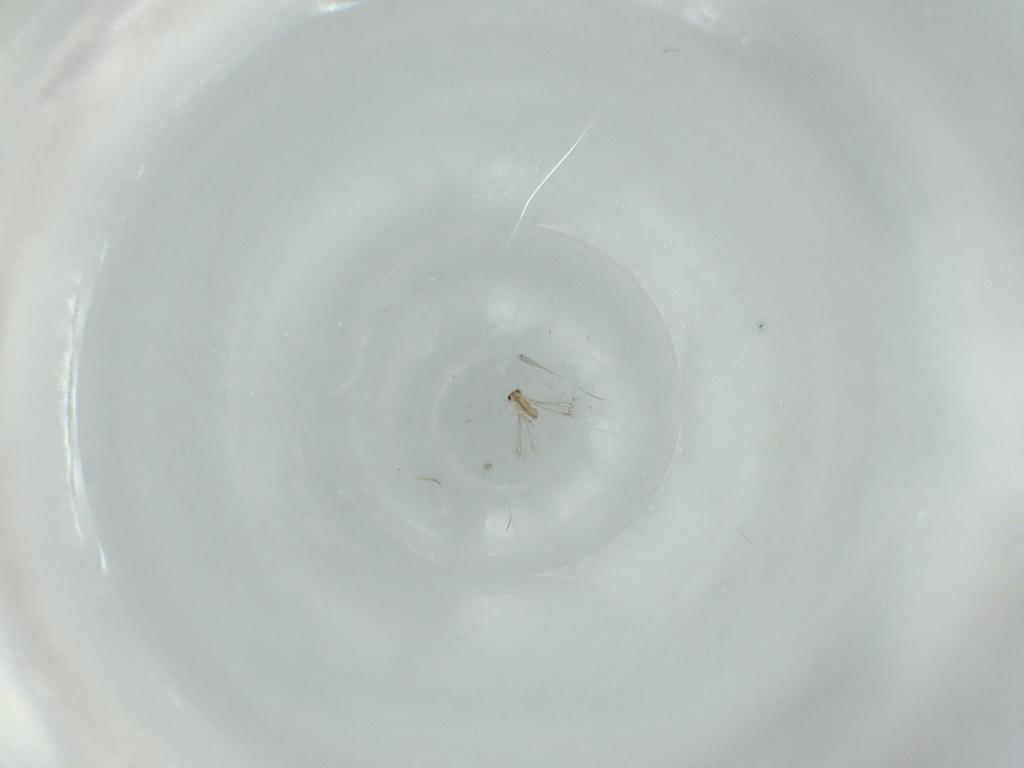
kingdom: Animalia
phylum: Arthropoda
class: Insecta
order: Hymenoptera
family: Mymaridae
